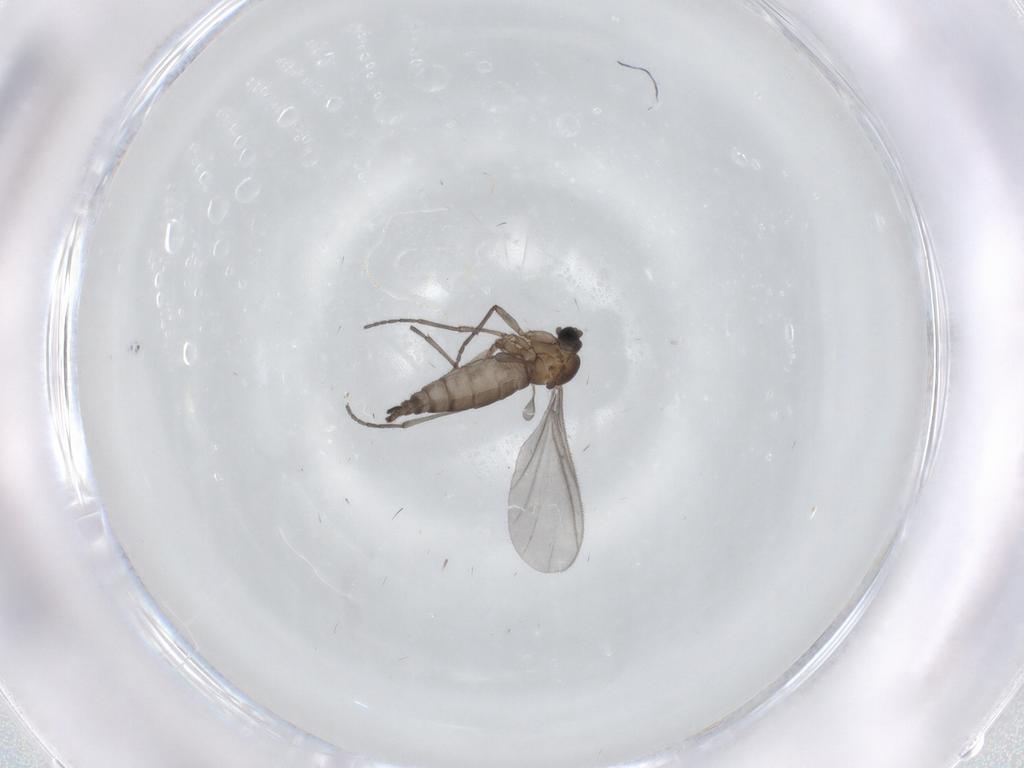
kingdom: Animalia
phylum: Arthropoda
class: Insecta
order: Diptera
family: Sciaridae
